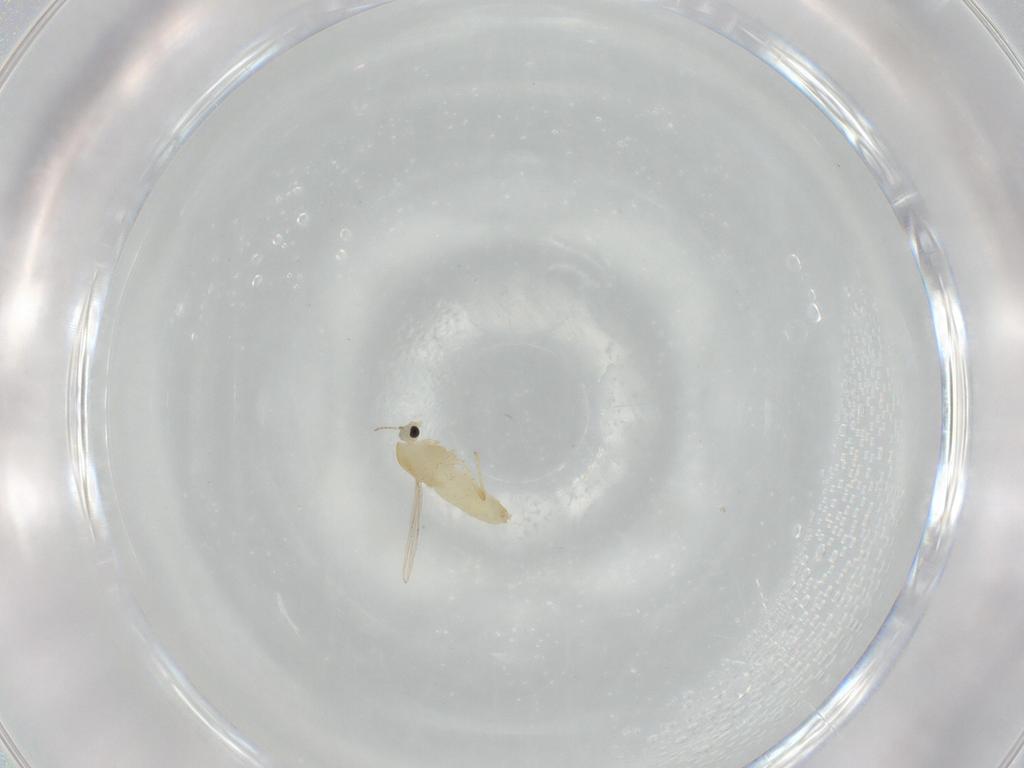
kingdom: Animalia
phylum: Arthropoda
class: Insecta
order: Diptera
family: Chironomidae
